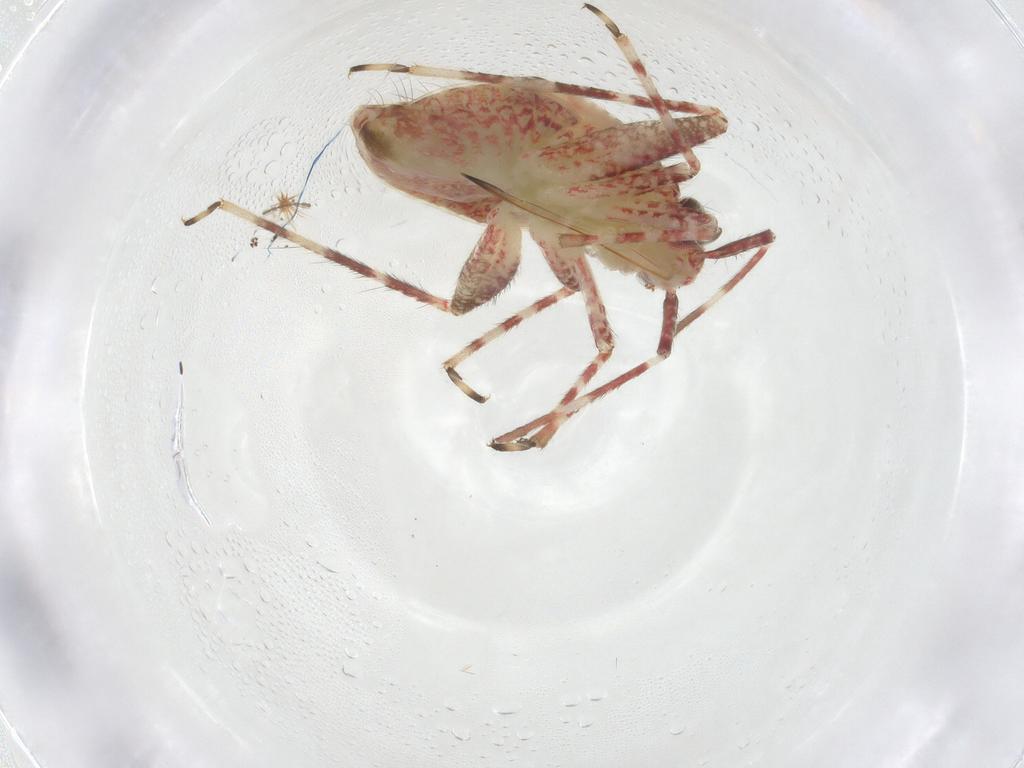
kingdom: Animalia
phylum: Arthropoda
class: Insecta
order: Hemiptera
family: Miridae
